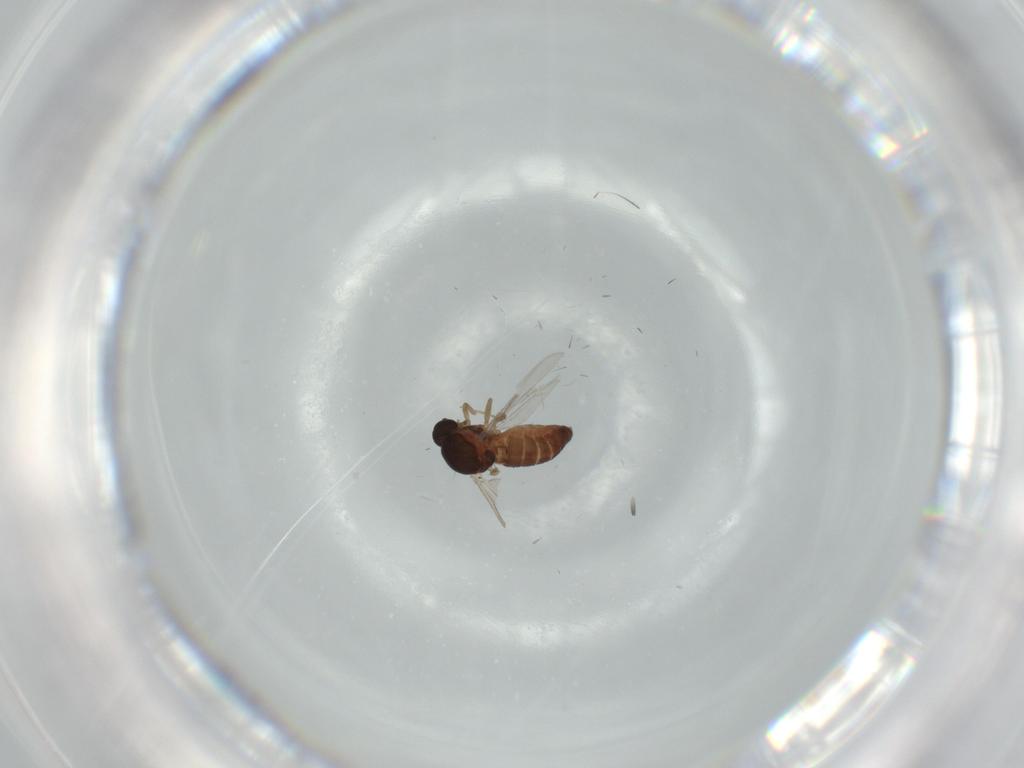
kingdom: Animalia
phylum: Arthropoda
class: Insecta
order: Diptera
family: Ceratopogonidae
